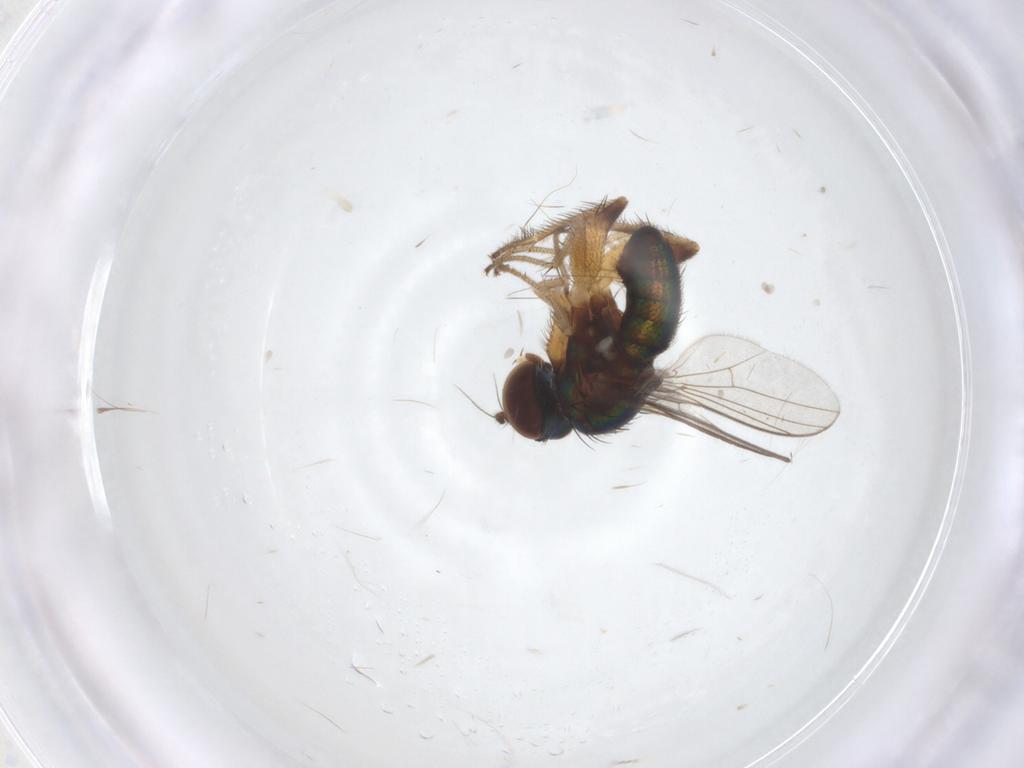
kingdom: Animalia
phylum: Arthropoda
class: Insecta
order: Diptera
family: Dolichopodidae
